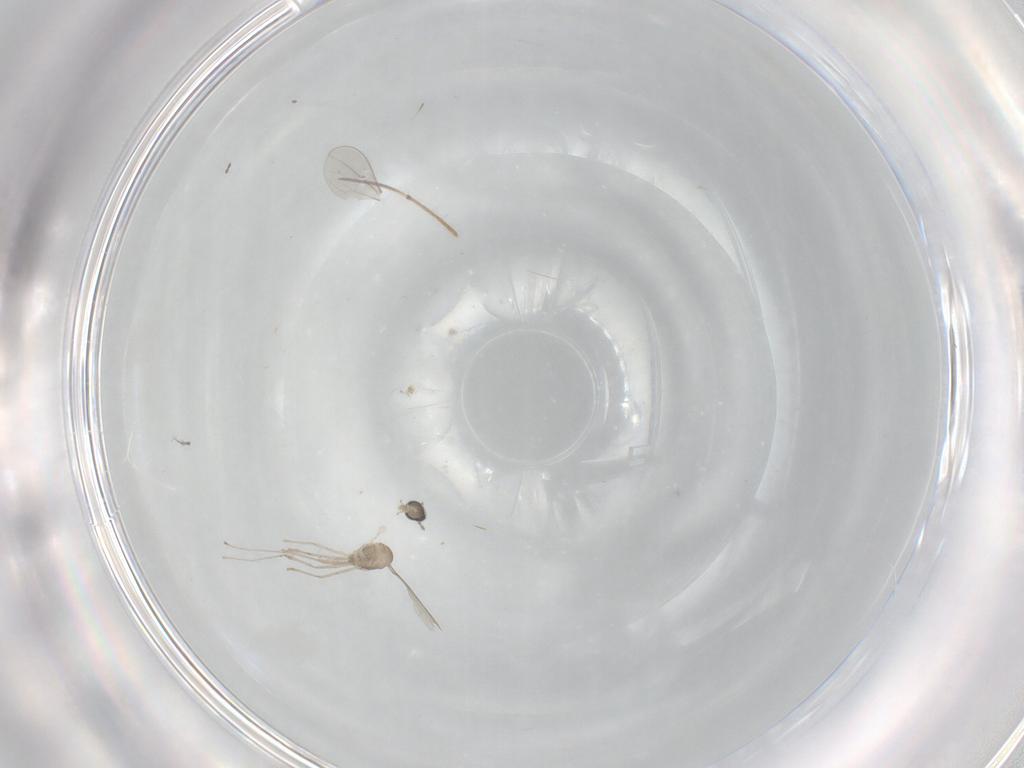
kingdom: Animalia
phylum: Arthropoda
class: Insecta
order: Diptera
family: Cecidomyiidae
